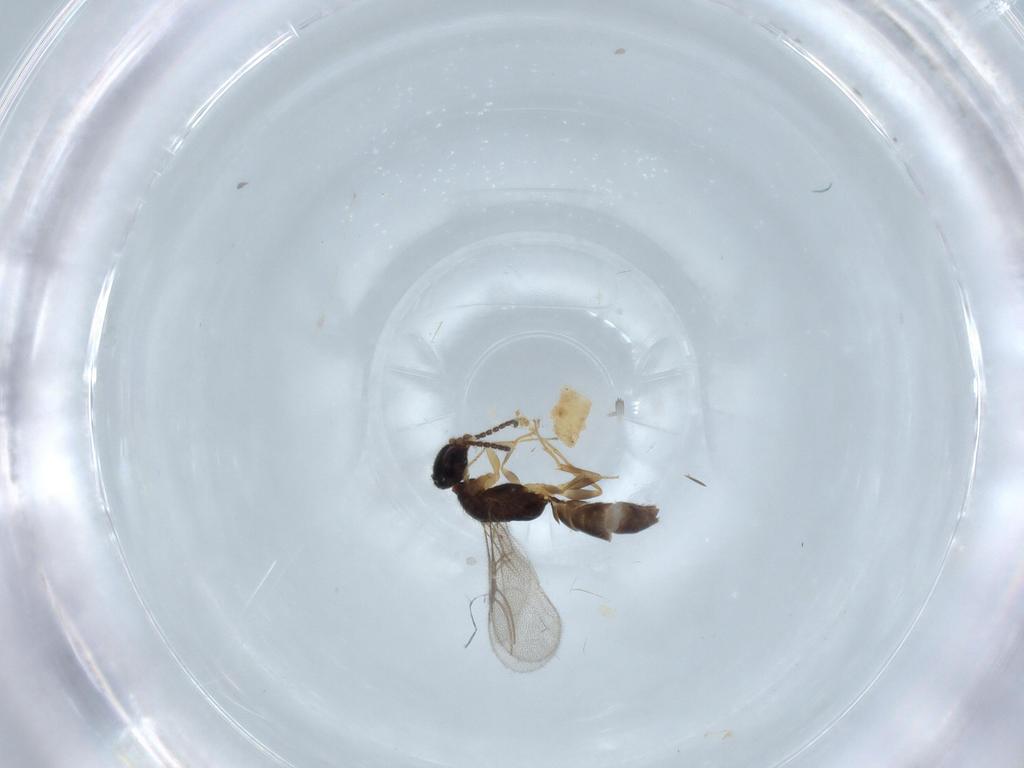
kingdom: Animalia
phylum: Arthropoda
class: Insecta
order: Hymenoptera
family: Bethylidae
